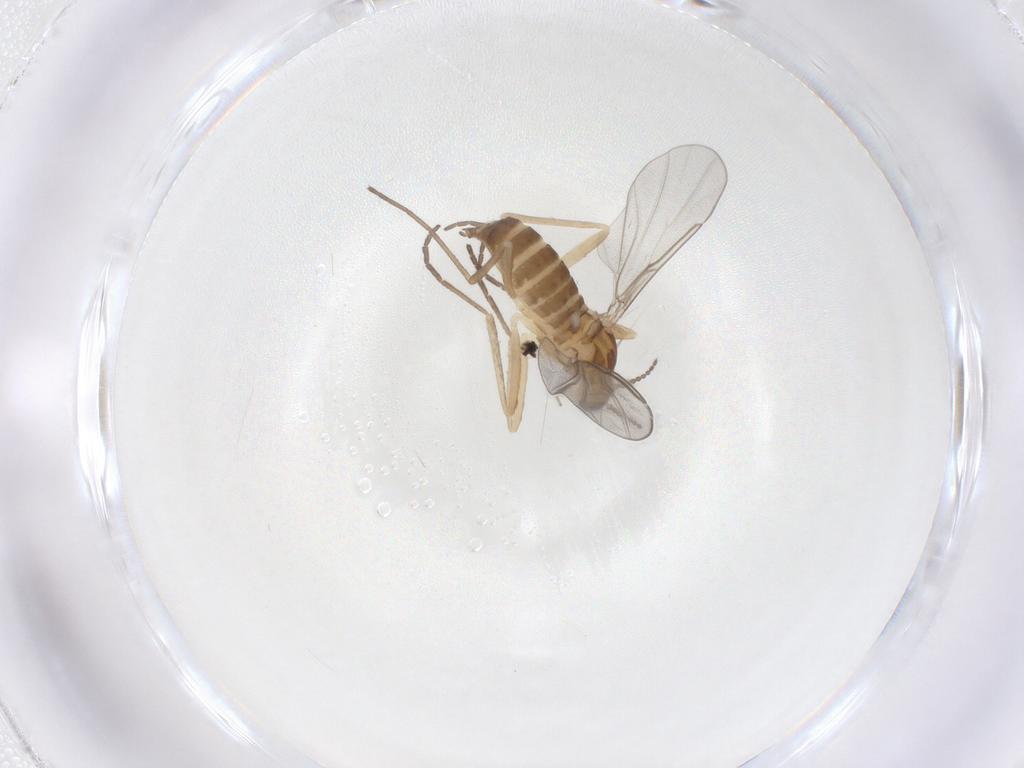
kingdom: Animalia
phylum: Arthropoda
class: Insecta
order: Diptera
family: Cecidomyiidae
